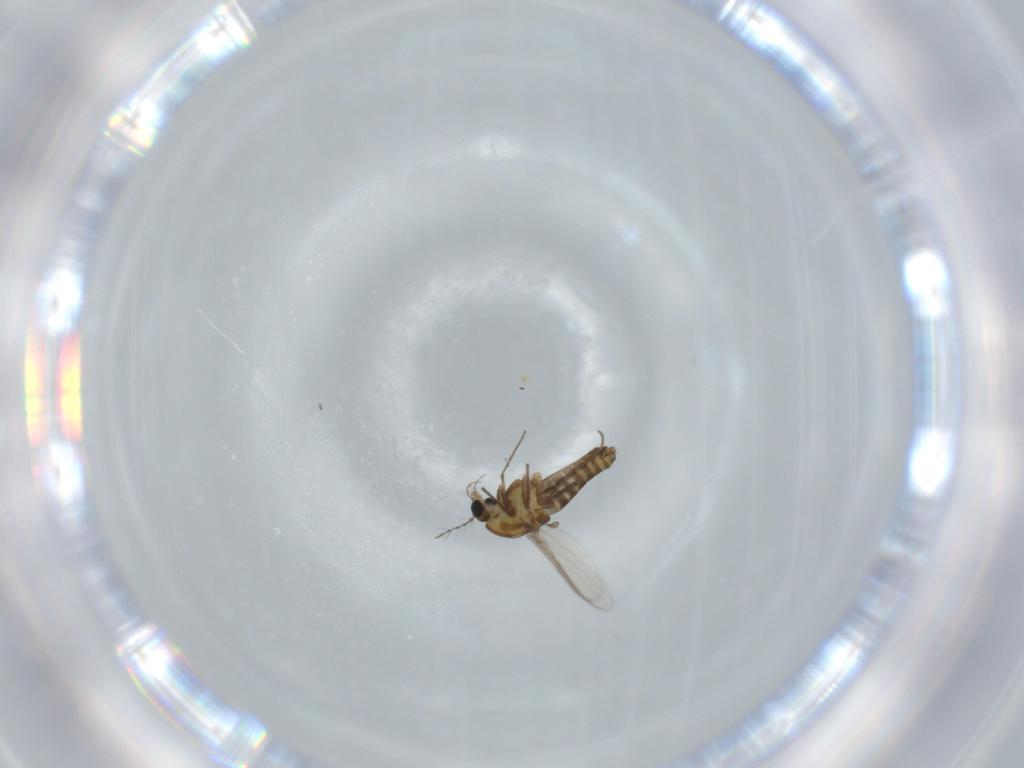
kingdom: Animalia
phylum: Arthropoda
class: Insecta
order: Diptera
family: Chironomidae
